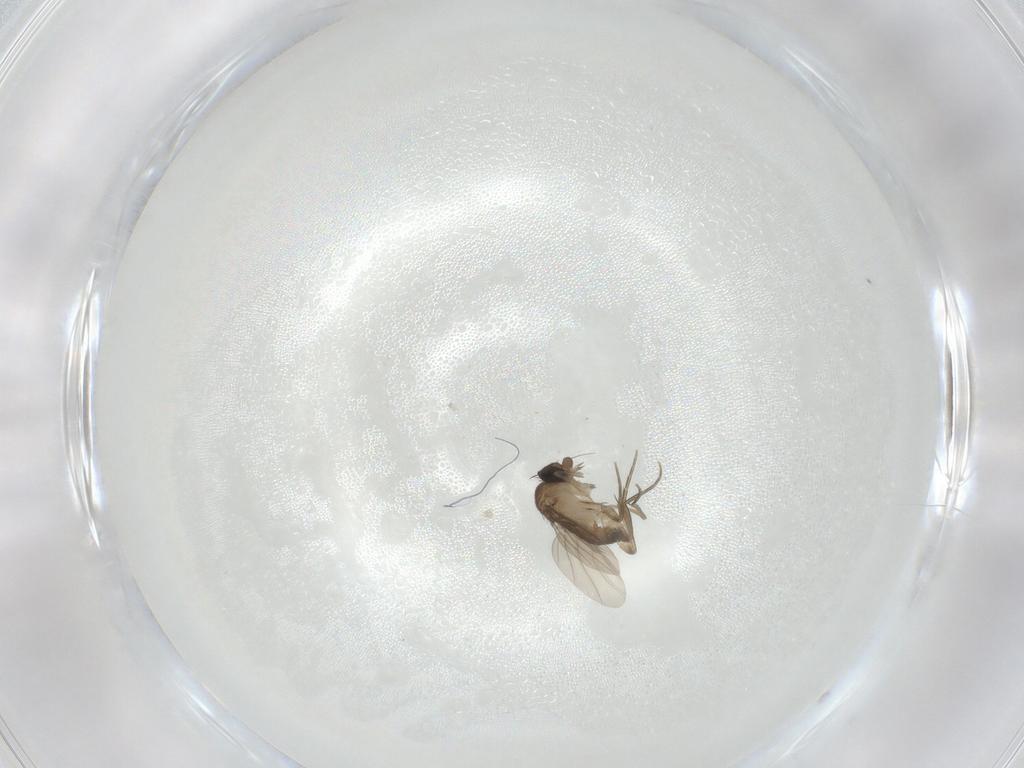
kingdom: Animalia
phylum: Arthropoda
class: Insecta
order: Diptera
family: Phoridae
